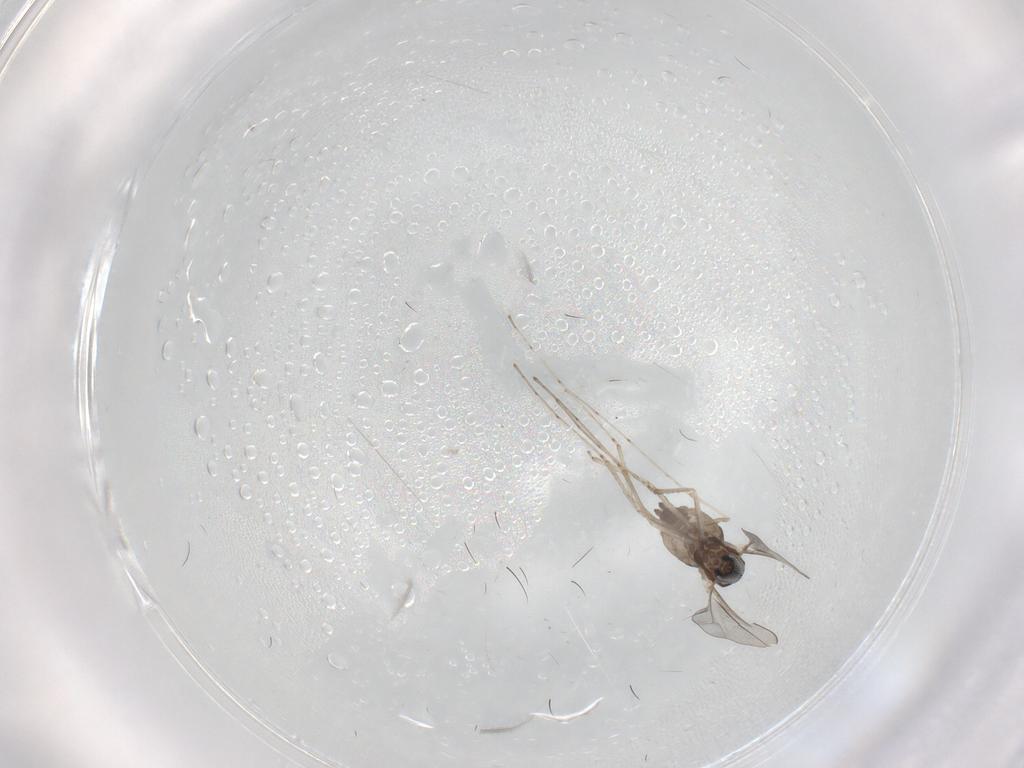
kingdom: Animalia
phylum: Arthropoda
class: Insecta
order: Diptera
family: Cecidomyiidae
